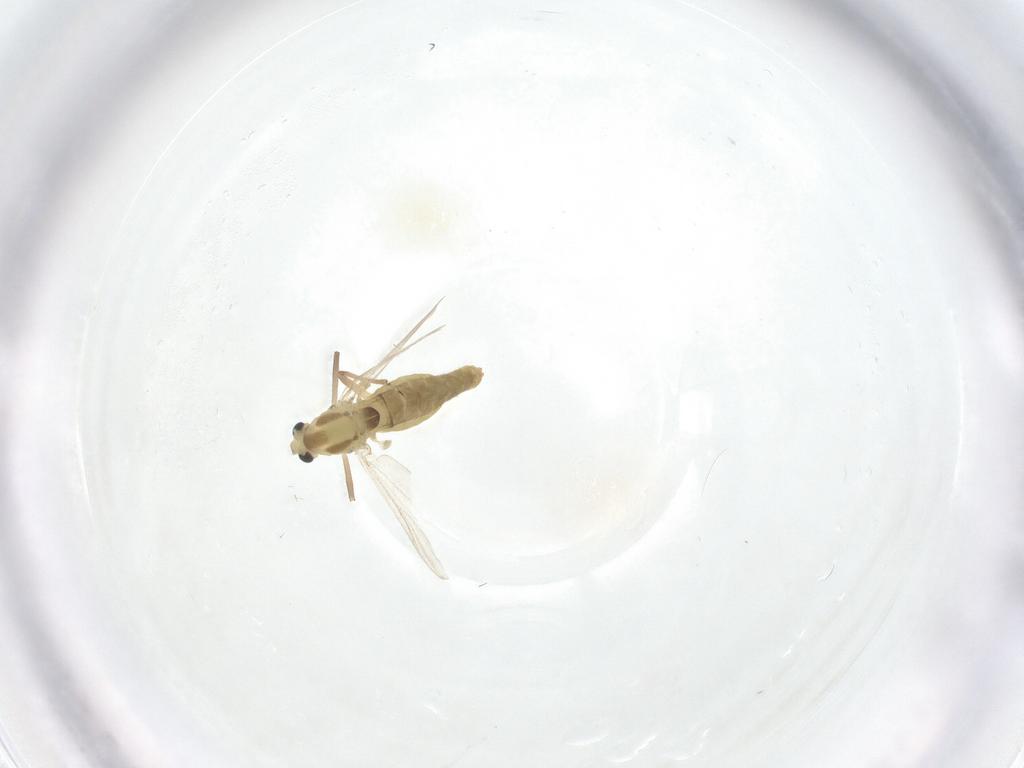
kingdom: Animalia
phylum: Arthropoda
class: Insecta
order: Diptera
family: Chironomidae
